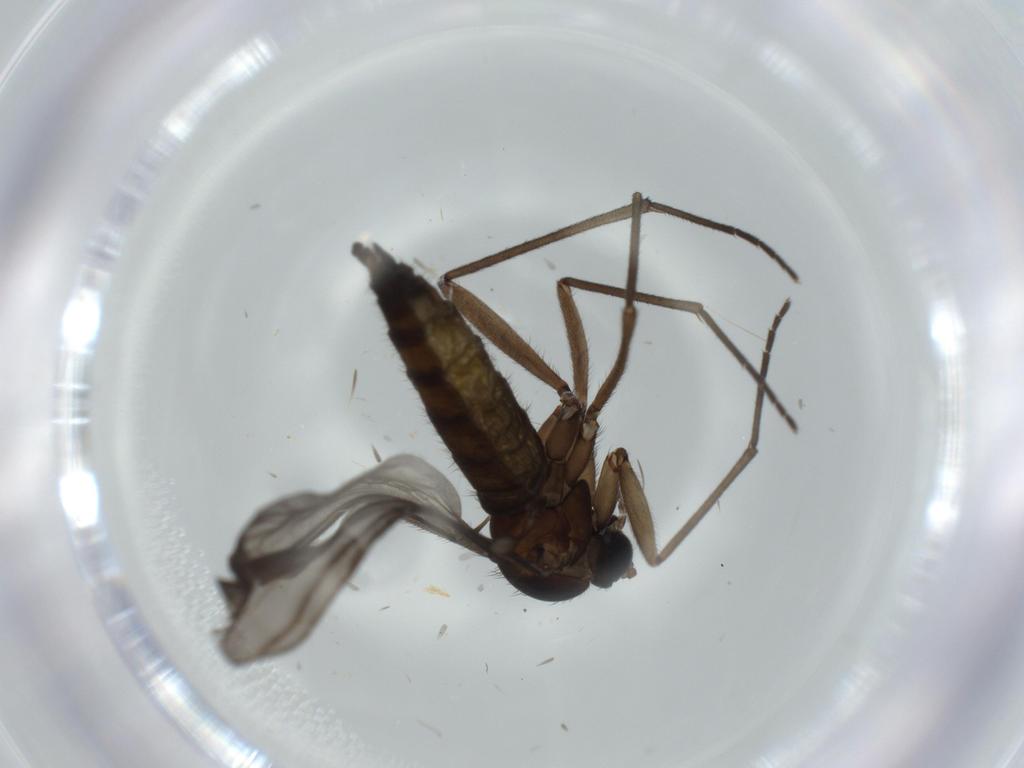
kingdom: Animalia
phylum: Arthropoda
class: Insecta
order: Diptera
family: Sciaridae
